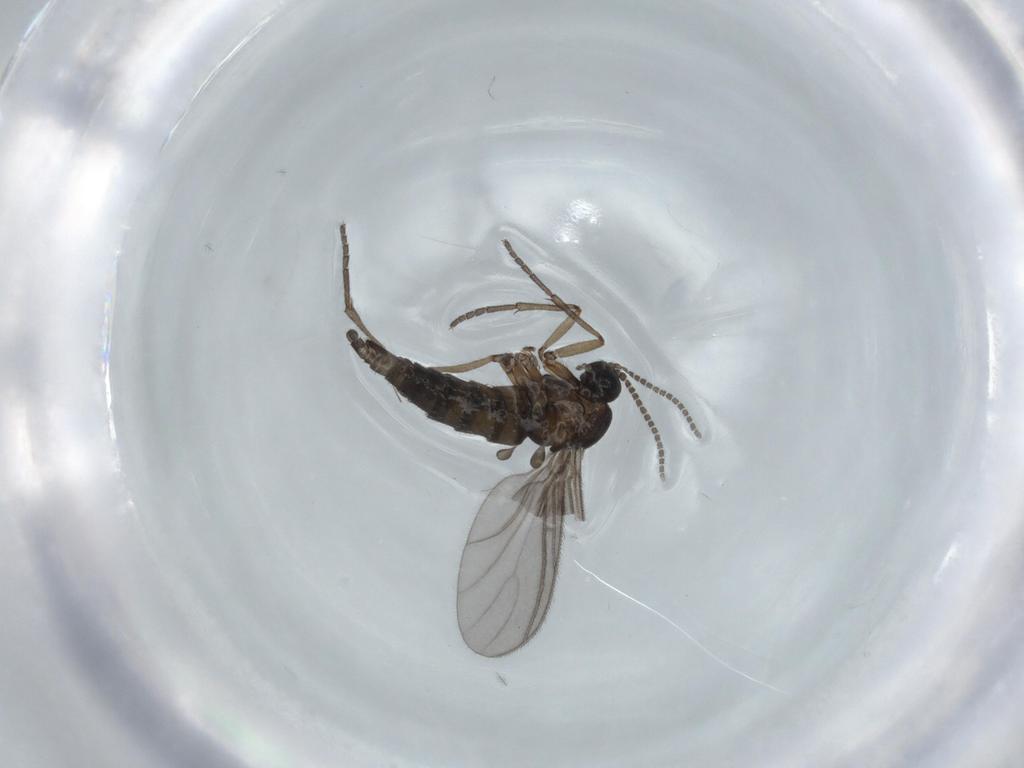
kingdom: Animalia
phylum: Arthropoda
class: Insecta
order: Diptera
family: Sciaridae
